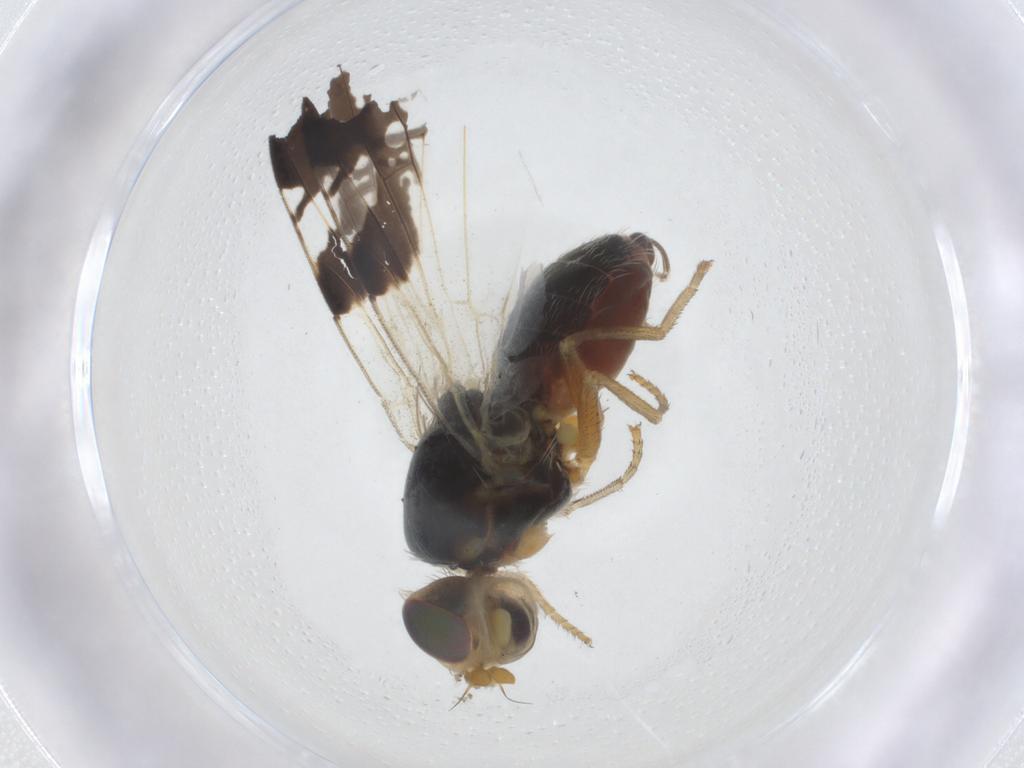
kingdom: Animalia
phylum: Arthropoda
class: Insecta
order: Diptera
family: Tephritidae
